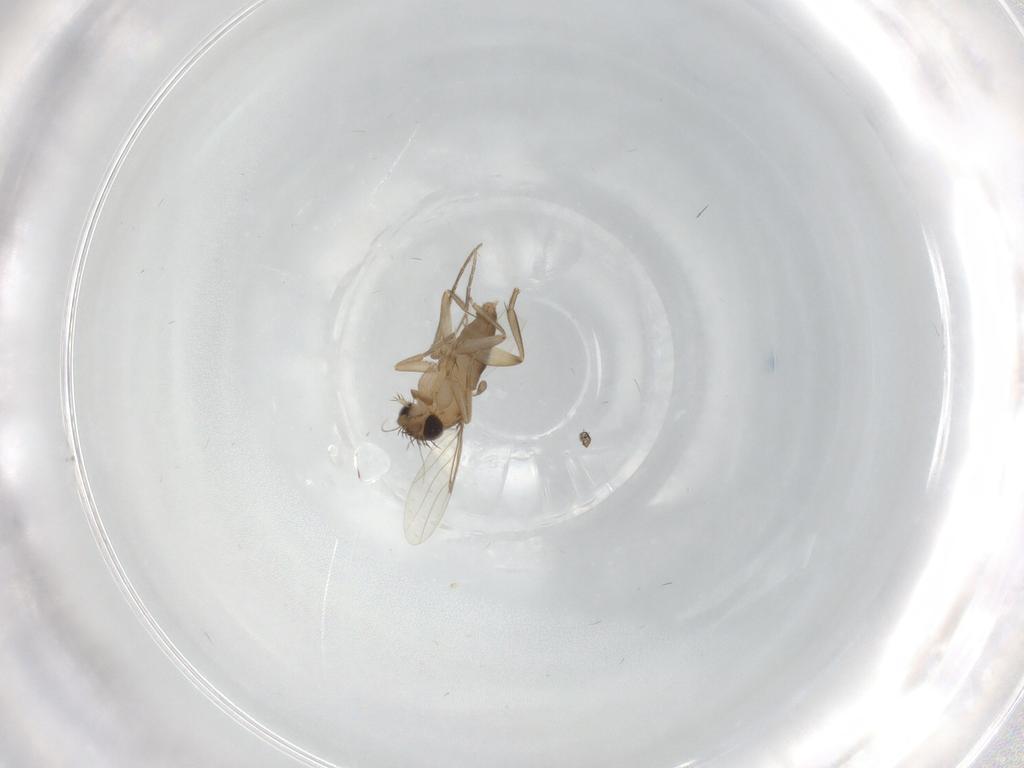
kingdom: Animalia
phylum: Arthropoda
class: Insecta
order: Diptera
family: Phoridae
